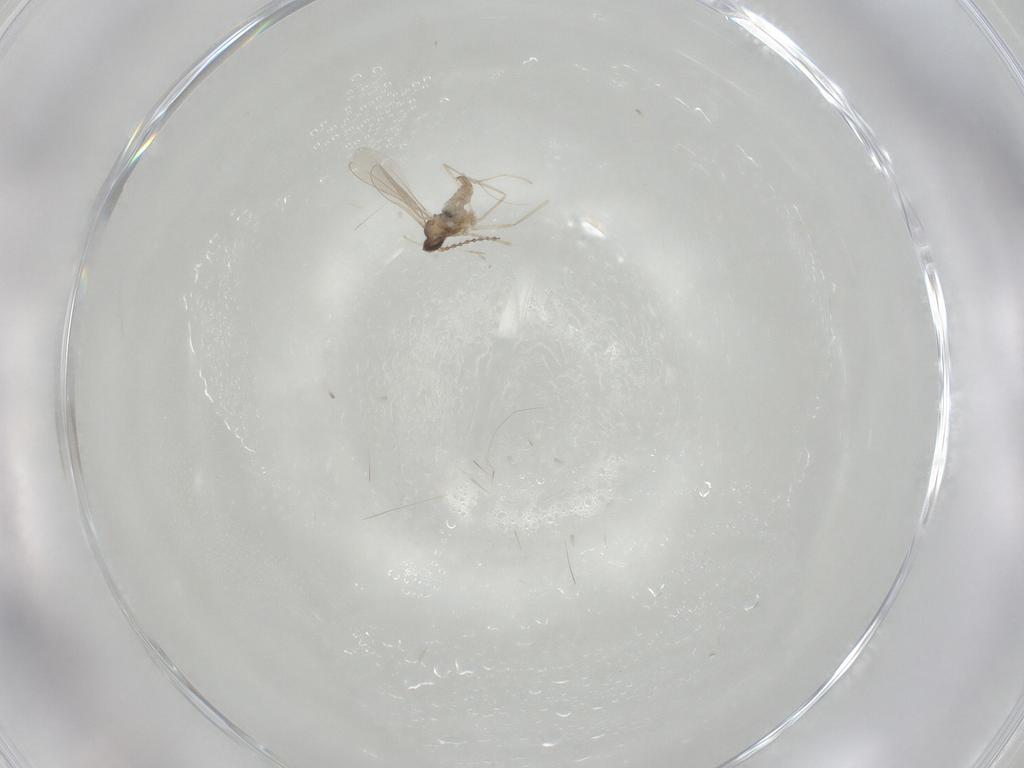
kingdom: Animalia
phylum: Arthropoda
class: Insecta
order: Diptera
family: Cecidomyiidae
